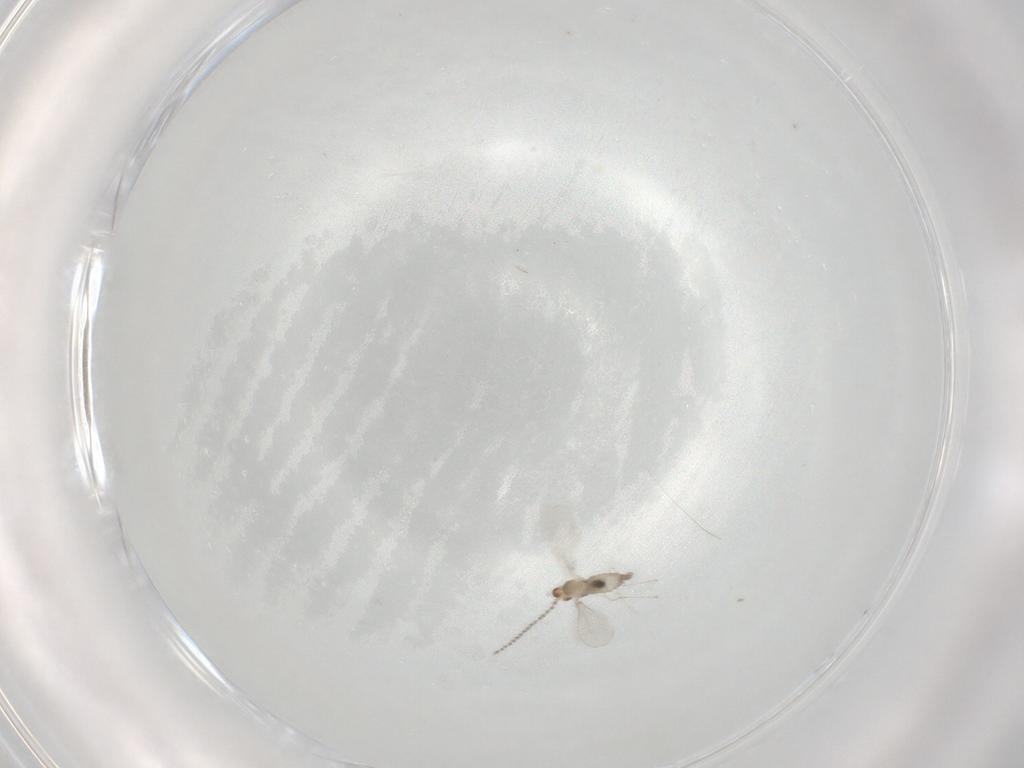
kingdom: Animalia
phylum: Arthropoda
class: Insecta
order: Diptera
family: Cecidomyiidae
